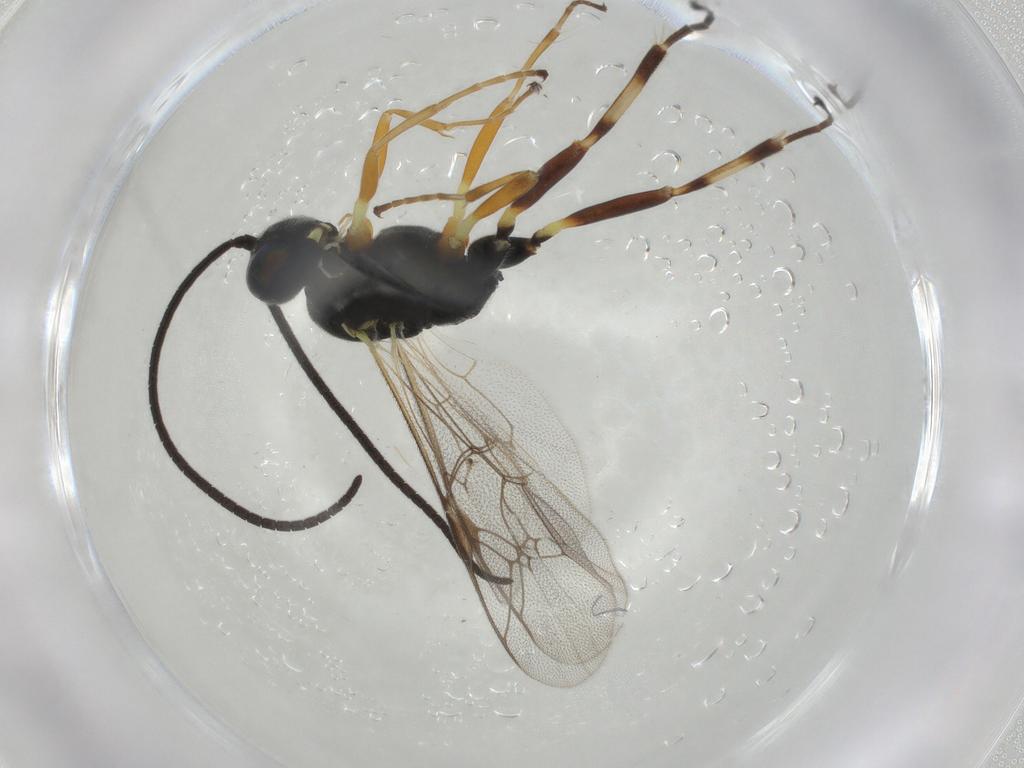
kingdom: Animalia
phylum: Arthropoda
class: Insecta
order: Hymenoptera
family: Ichneumonidae
